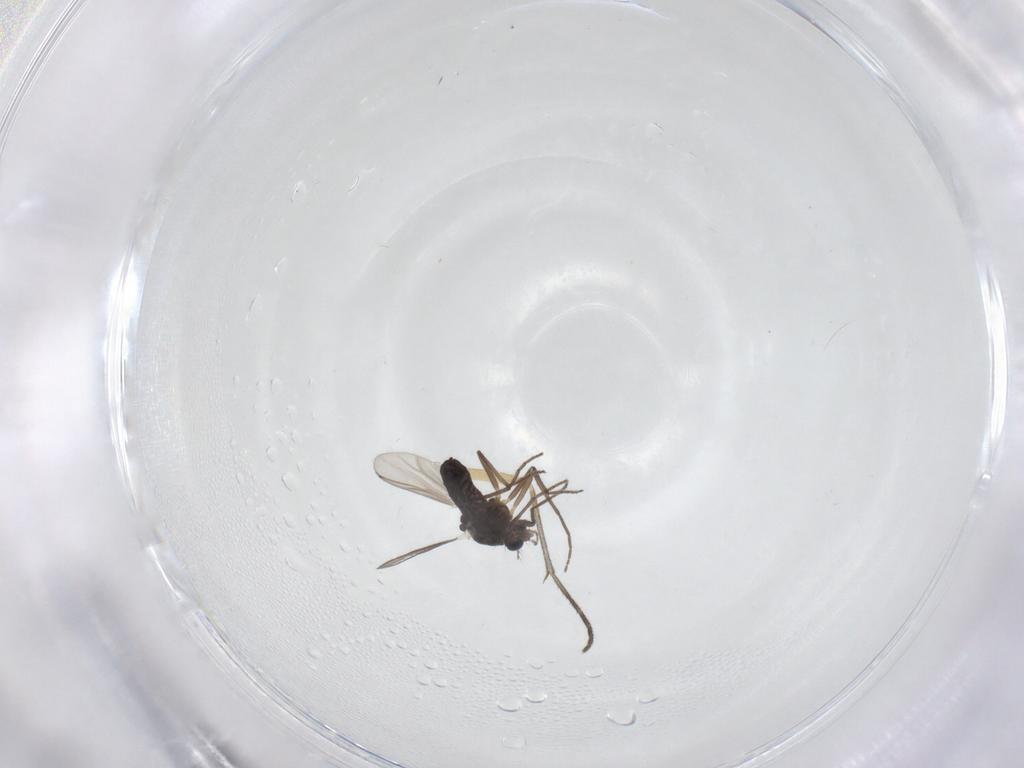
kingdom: Animalia
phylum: Arthropoda
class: Insecta
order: Diptera
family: Chironomidae
